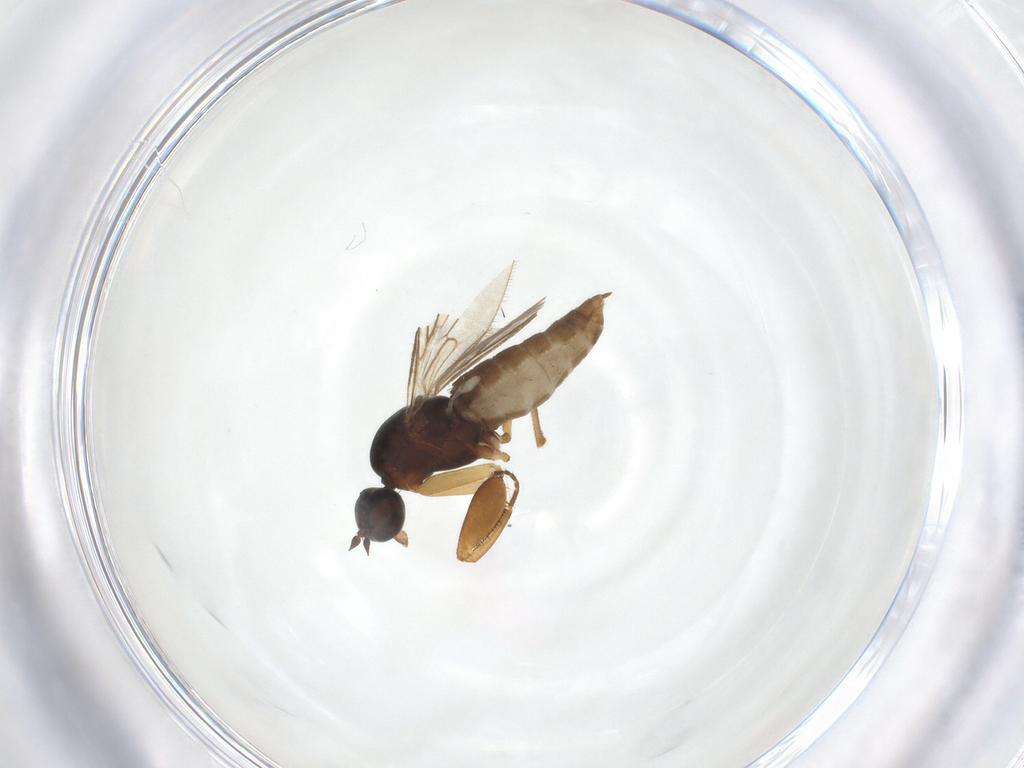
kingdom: Animalia
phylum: Arthropoda
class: Insecta
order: Diptera
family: Empididae
